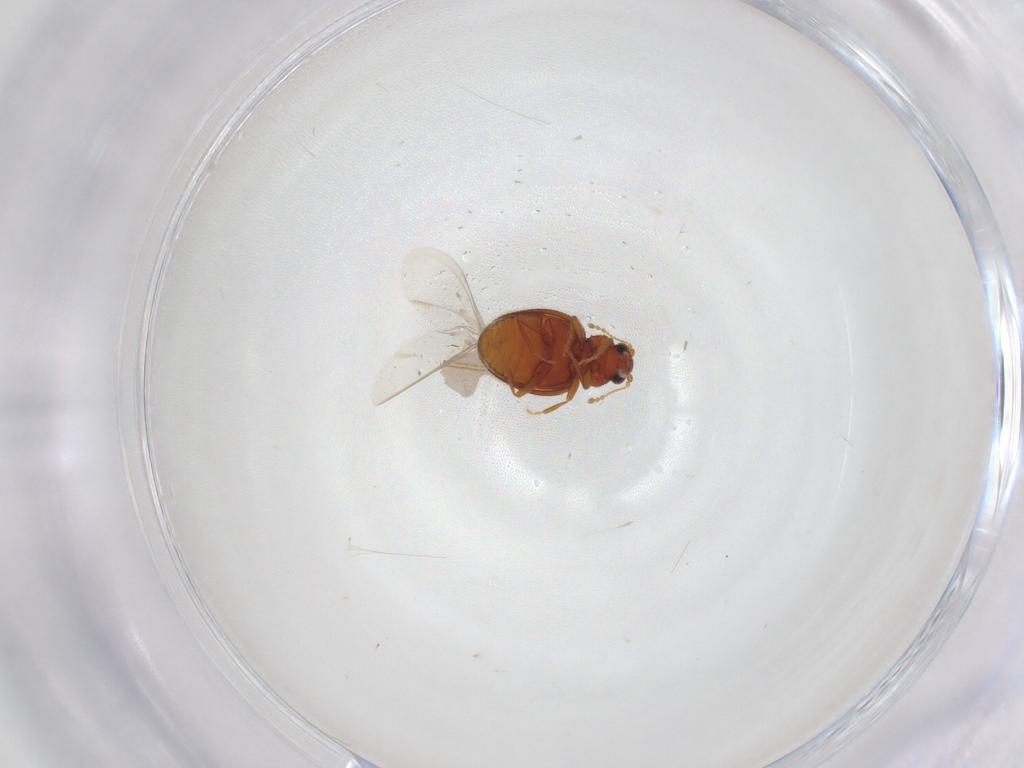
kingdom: Animalia
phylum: Arthropoda
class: Insecta
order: Coleoptera
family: Latridiidae
